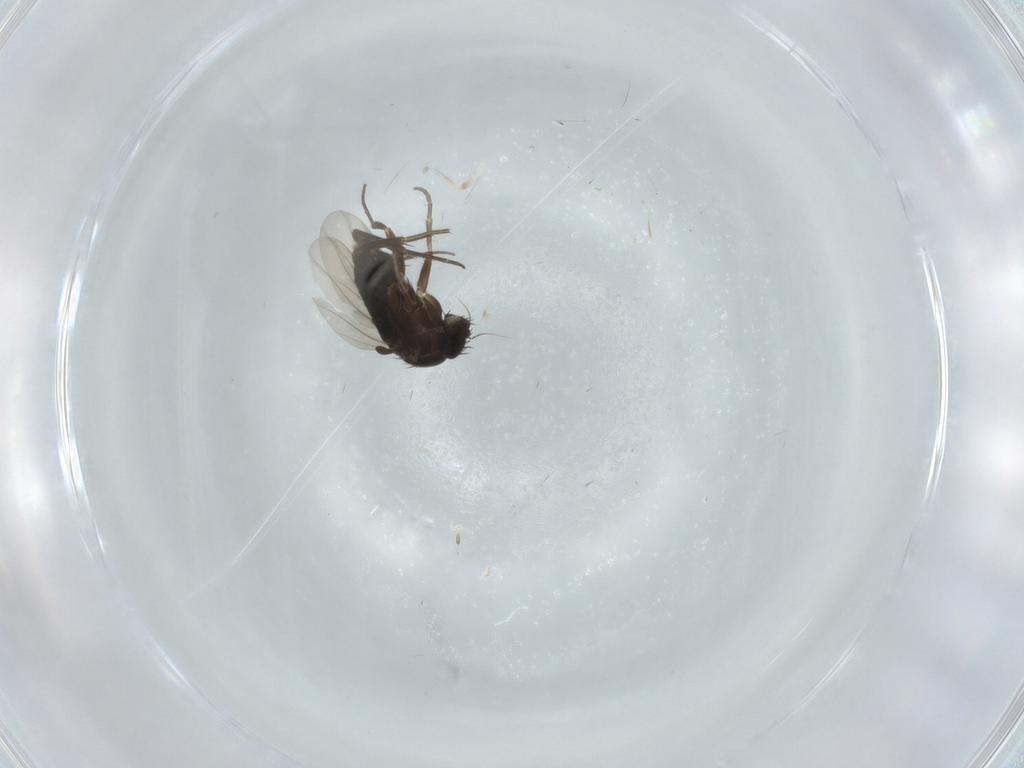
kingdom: Animalia
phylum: Arthropoda
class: Insecta
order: Diptera
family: Phoridae
